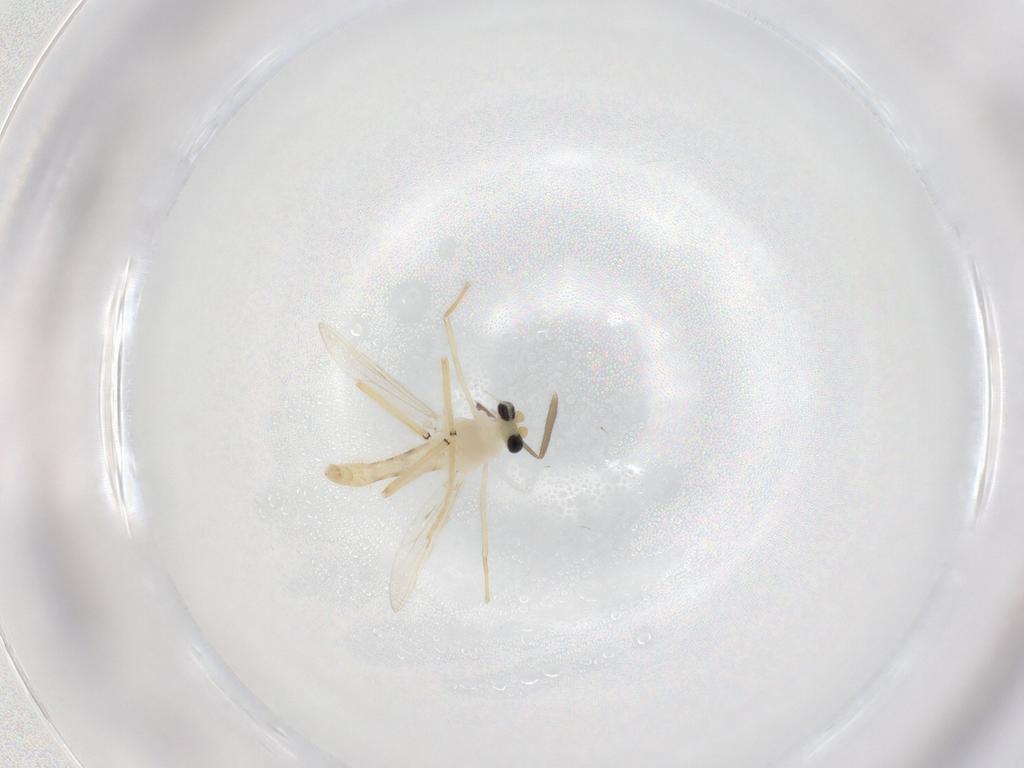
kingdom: Animalia
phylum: Arthropoda
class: Insecta
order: Diptera
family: Chironomidae
